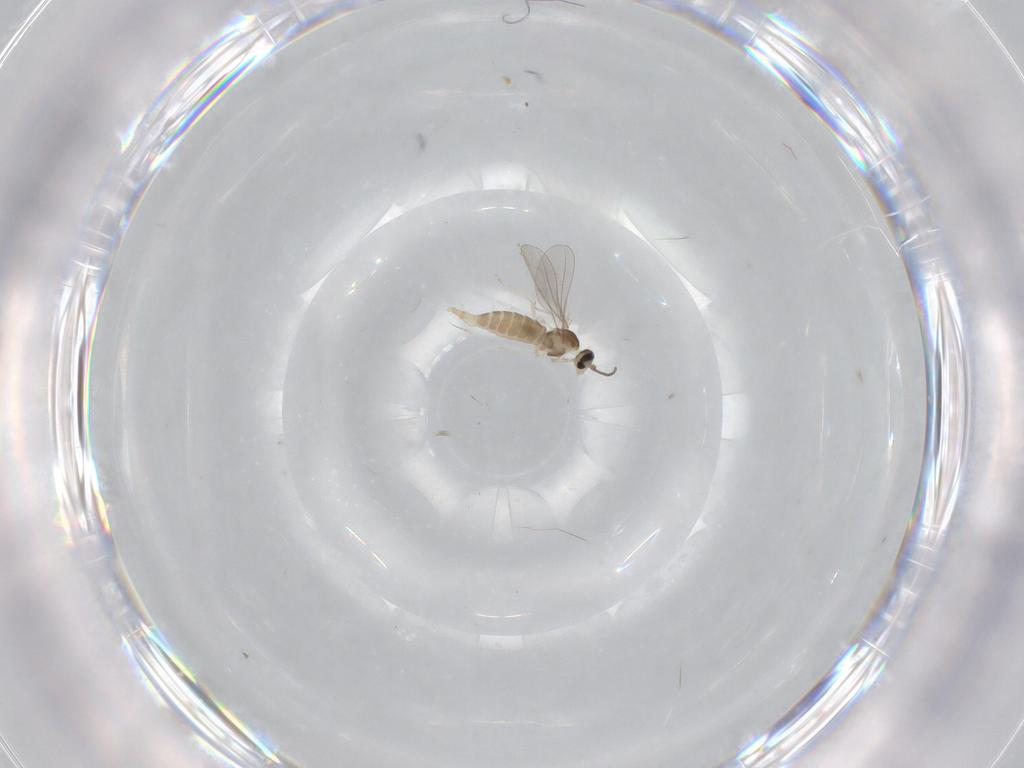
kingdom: Animalia
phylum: Arthropoda
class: Insecta
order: Diptera
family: Cecidomyiidae
